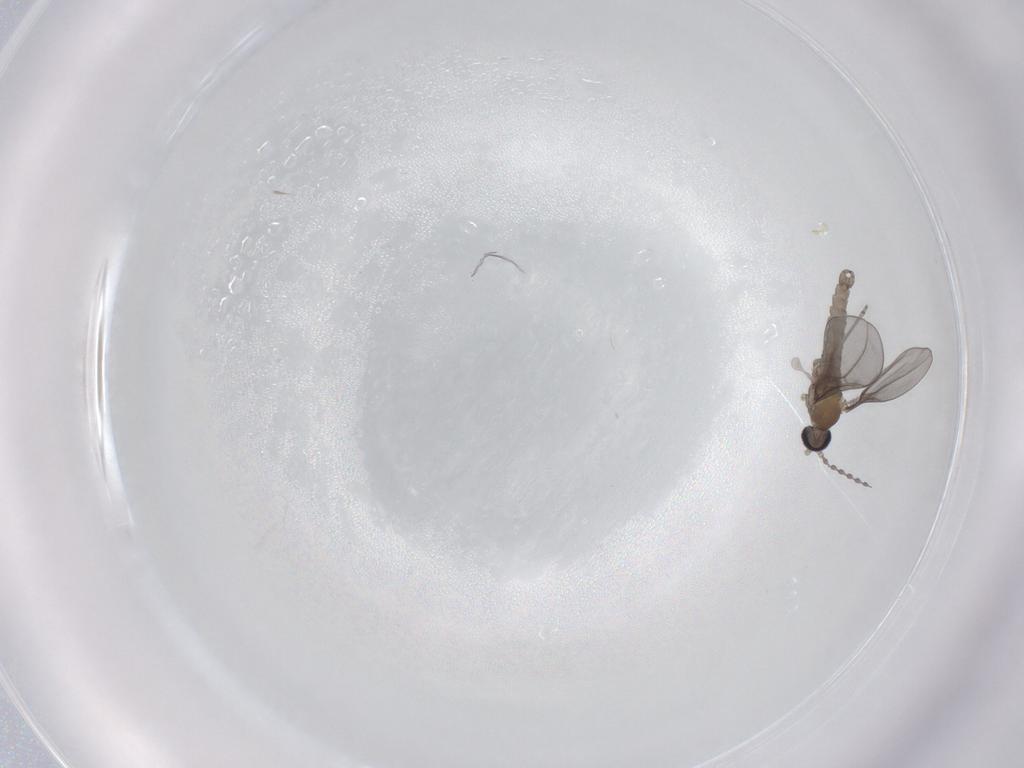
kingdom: Animalia
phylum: Arthropoda
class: Insecta
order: Diptera
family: Cecidomyiidae
